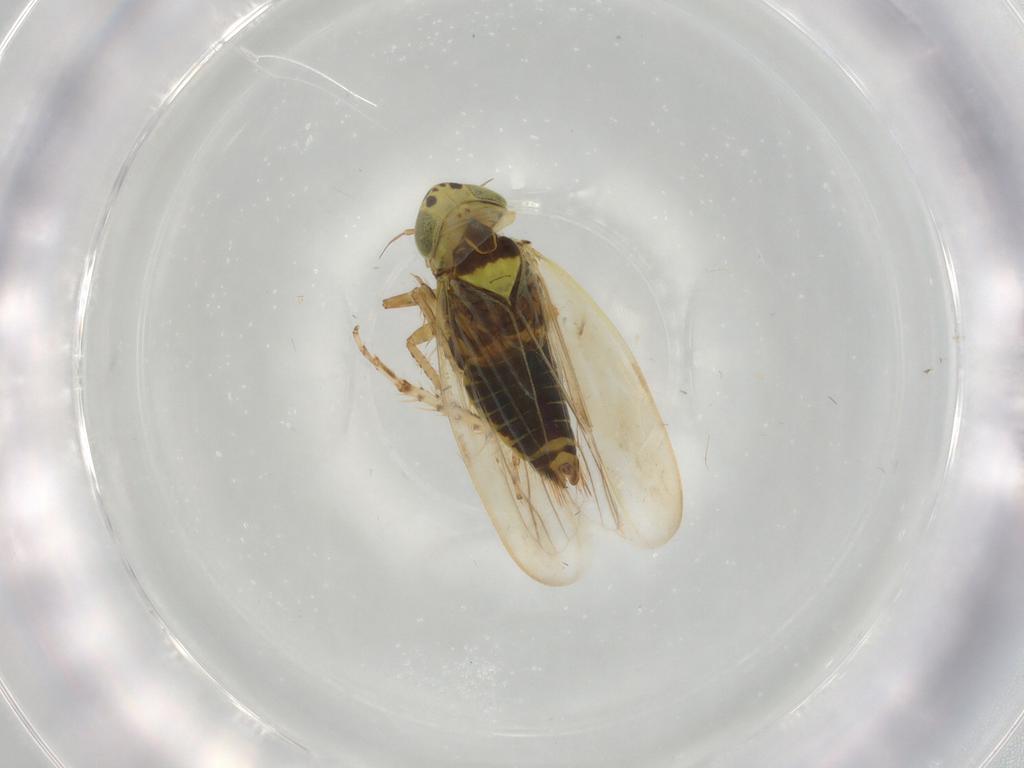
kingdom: Animalia
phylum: Arthropoda
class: Insecta
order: Hemiptera
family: Cicadellidae
